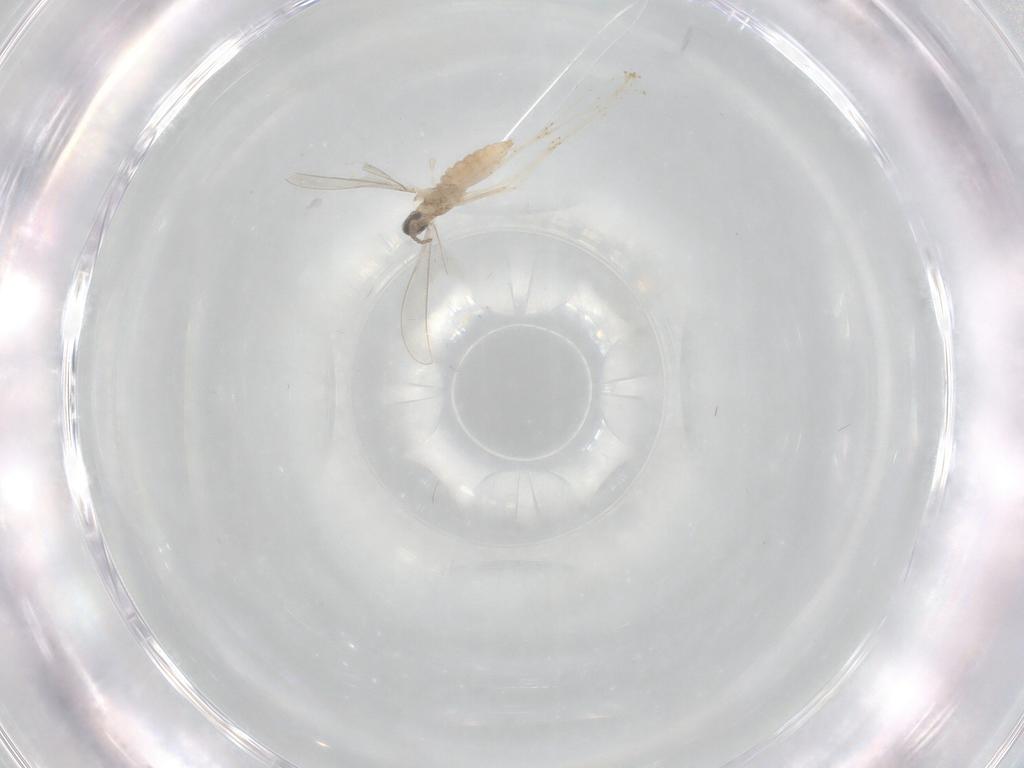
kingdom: Animalia
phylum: Arthropoda
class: Insecta
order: Diptera
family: Cecidomyiidae
